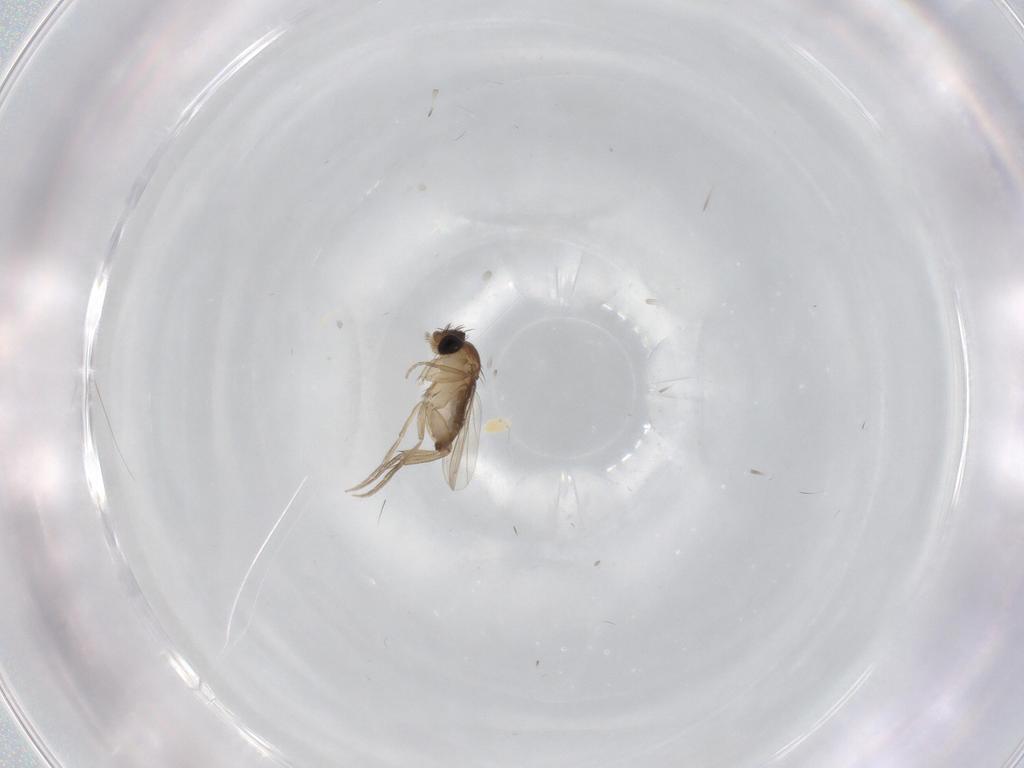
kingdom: Animalia
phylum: Arthropoda
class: Insecta
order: Diptera
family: Phoridae
